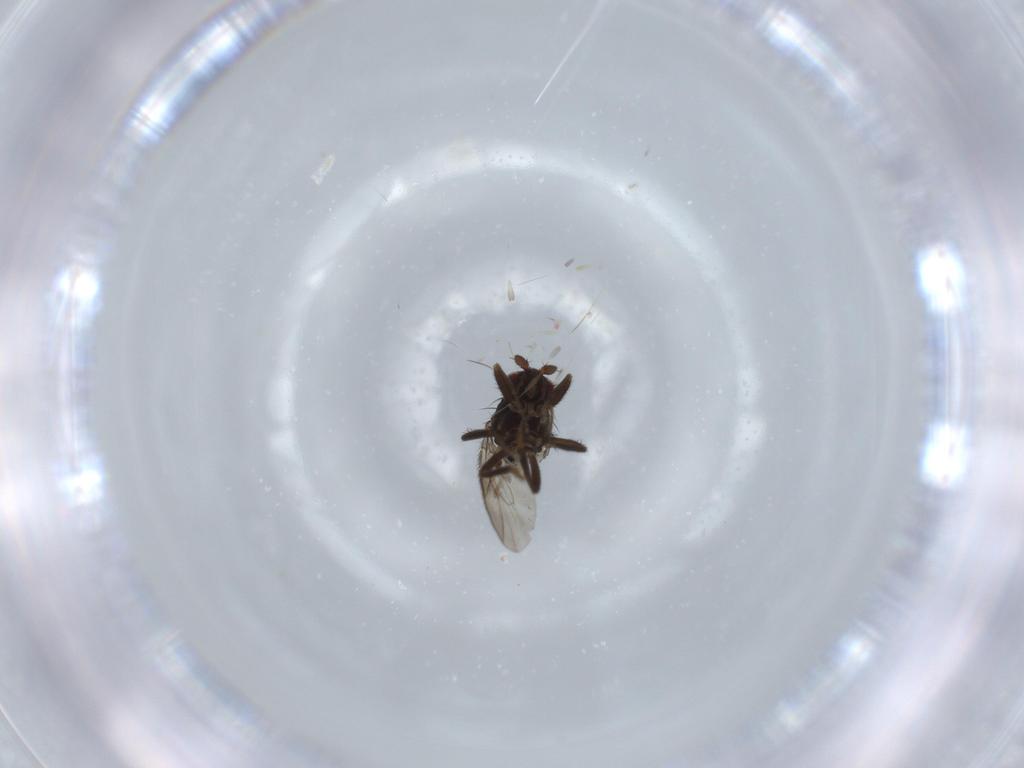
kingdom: Animalia
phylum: Arthropoda
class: Insecta
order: Diptera
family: Sphaeroceridae
